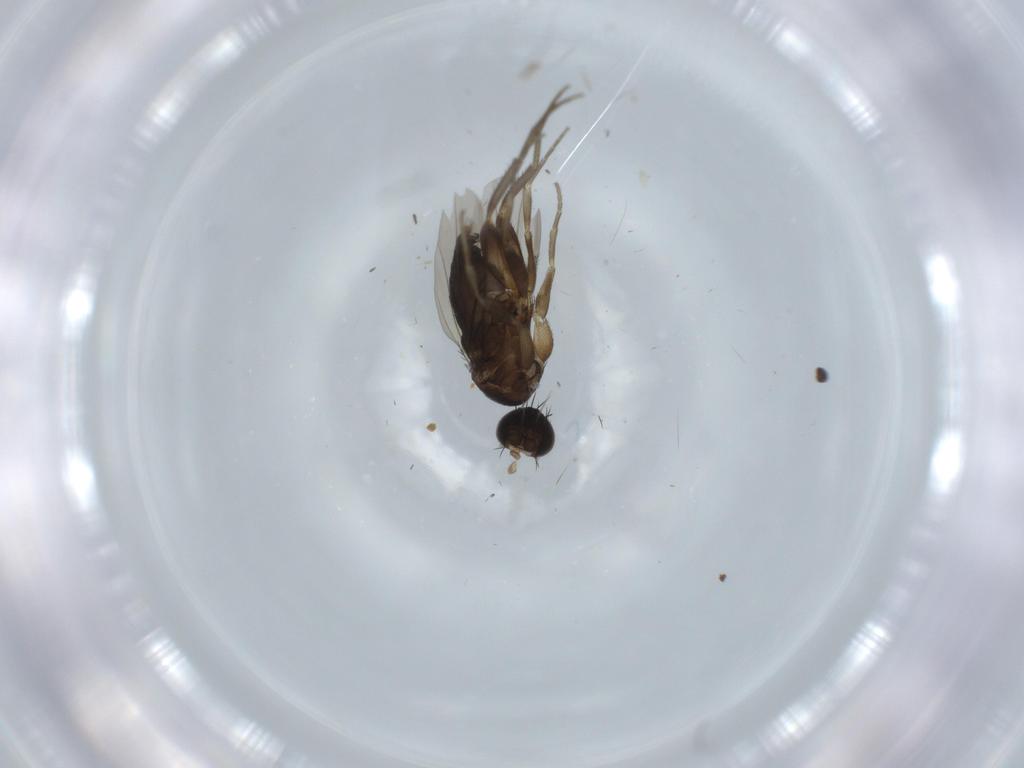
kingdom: Animalia
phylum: Arthropoda
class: Insecta
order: Diptera
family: Phoridae
